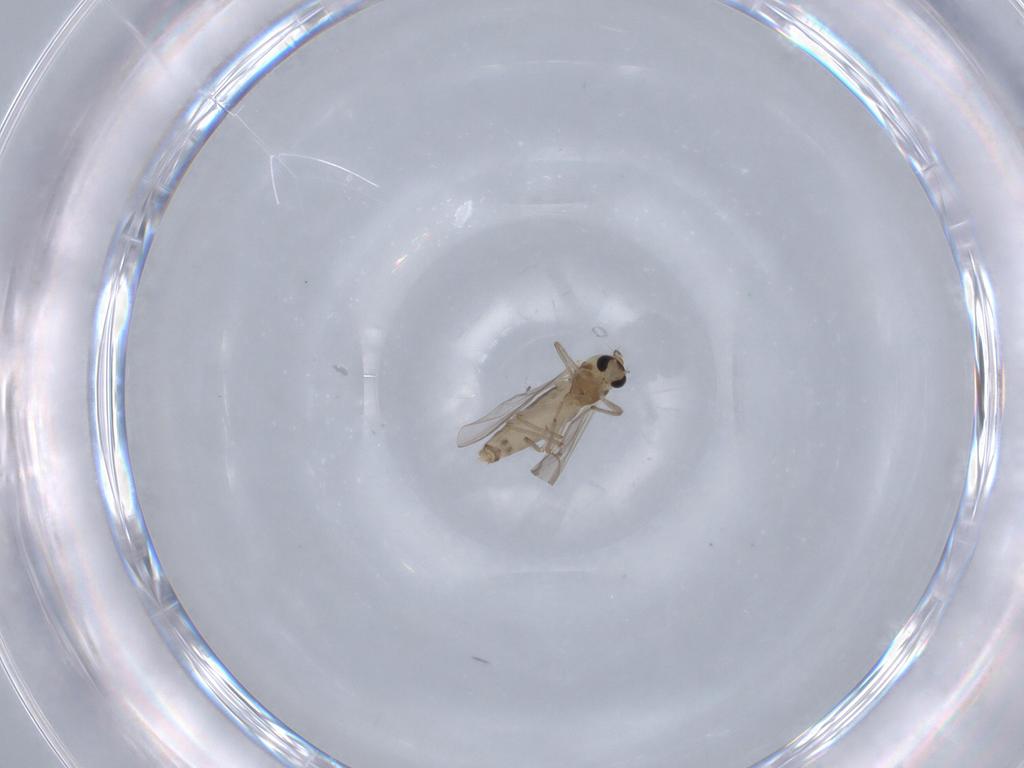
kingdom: Animalia
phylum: Arthropoda
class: Insecta
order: Diptera
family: Chironomidae
